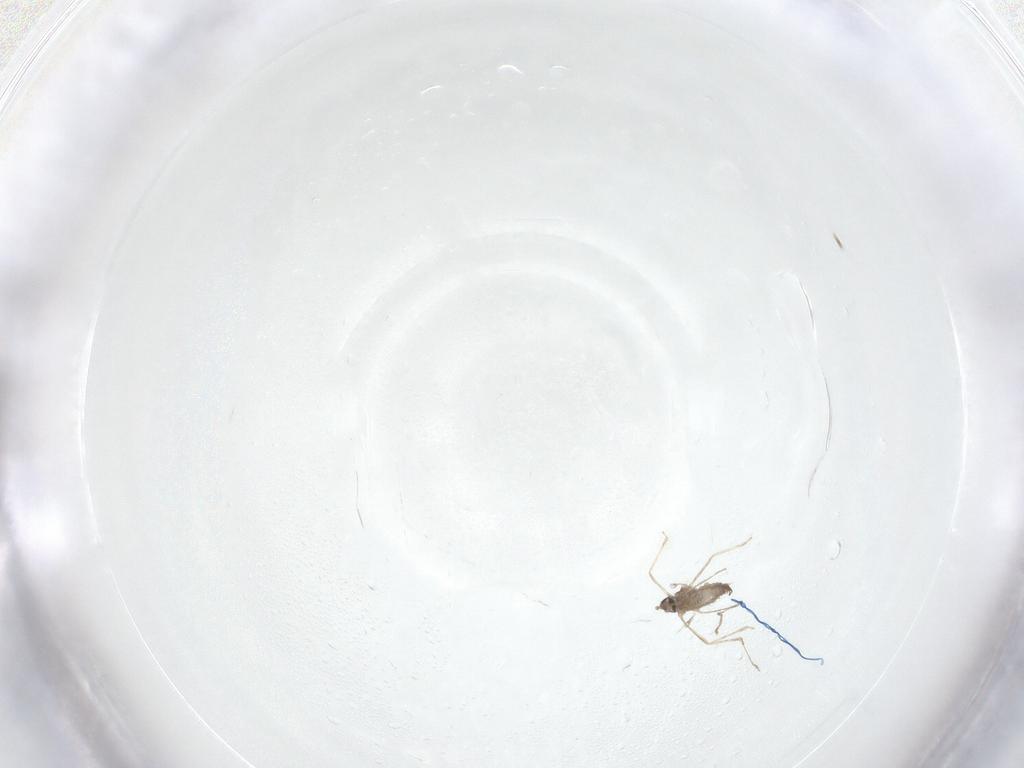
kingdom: Animalia
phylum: Arthropoda
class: Insecta
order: Diptera
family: Cecidomyiidae
